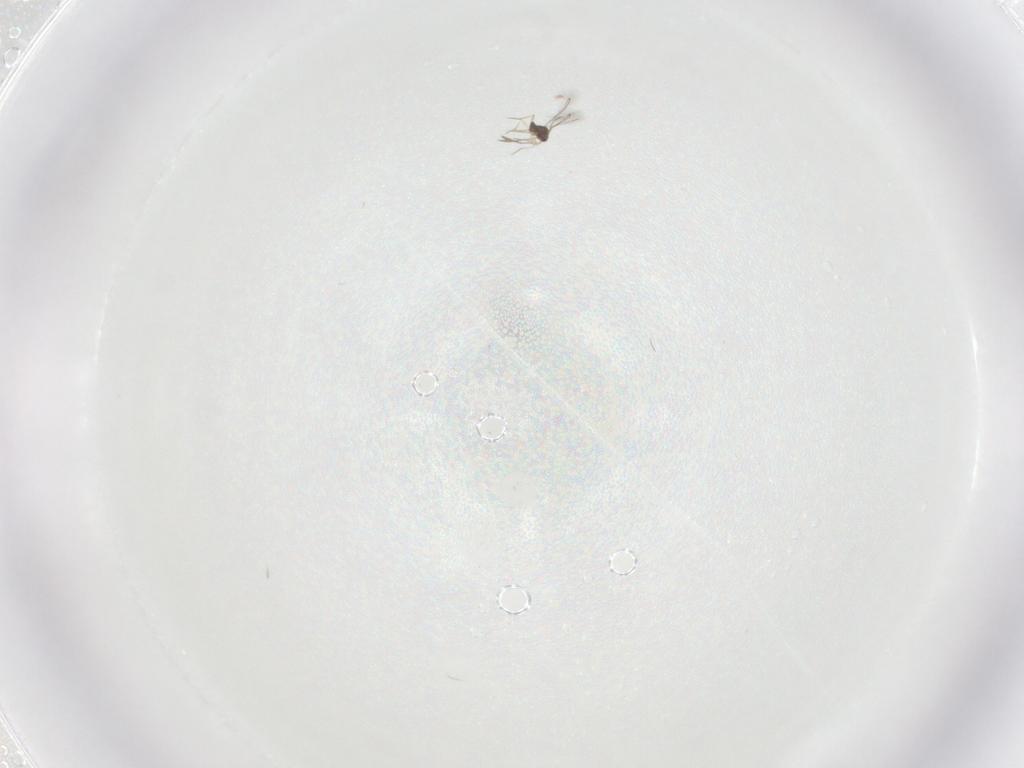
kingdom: Animalia
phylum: Arthropoda
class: Insecta
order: Hymenoptera
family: Mymaridae
